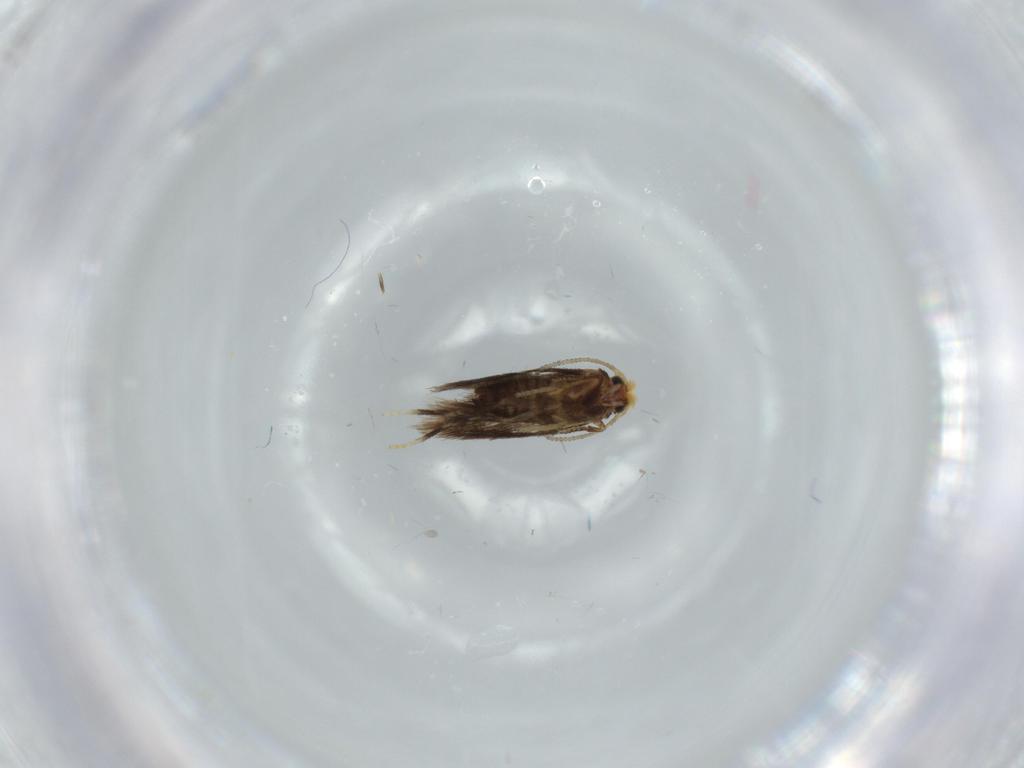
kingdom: Animalia
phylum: Arthropoda
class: Insecta
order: Lepidoptera
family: Nepticulidae
